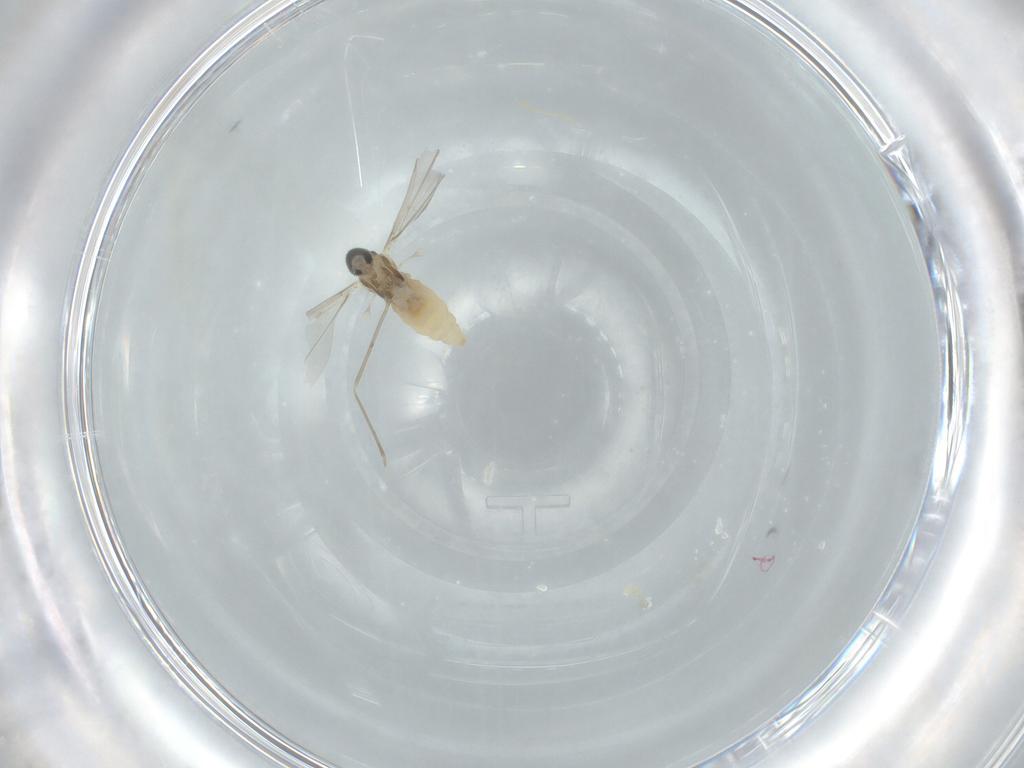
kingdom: Animalia
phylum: Arthropoda
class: Insecta
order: Diptera
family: Cecidomyiidae
